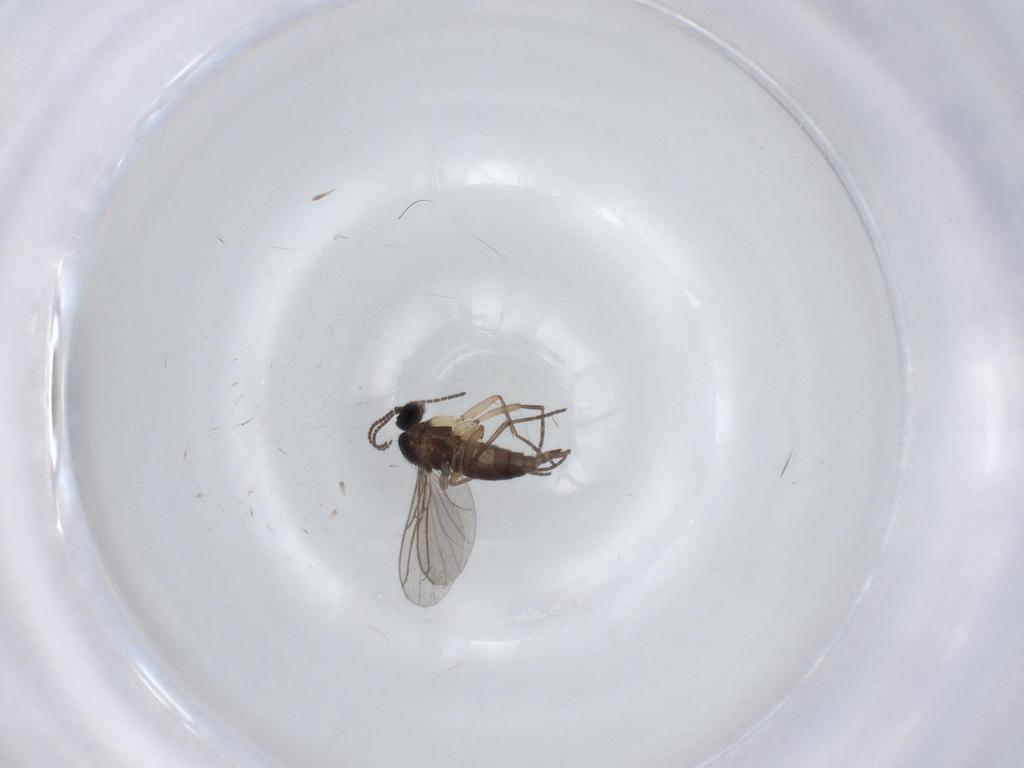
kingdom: Animalia
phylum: Arthropoda
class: Insecta
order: Diptera
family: Sciaridae
